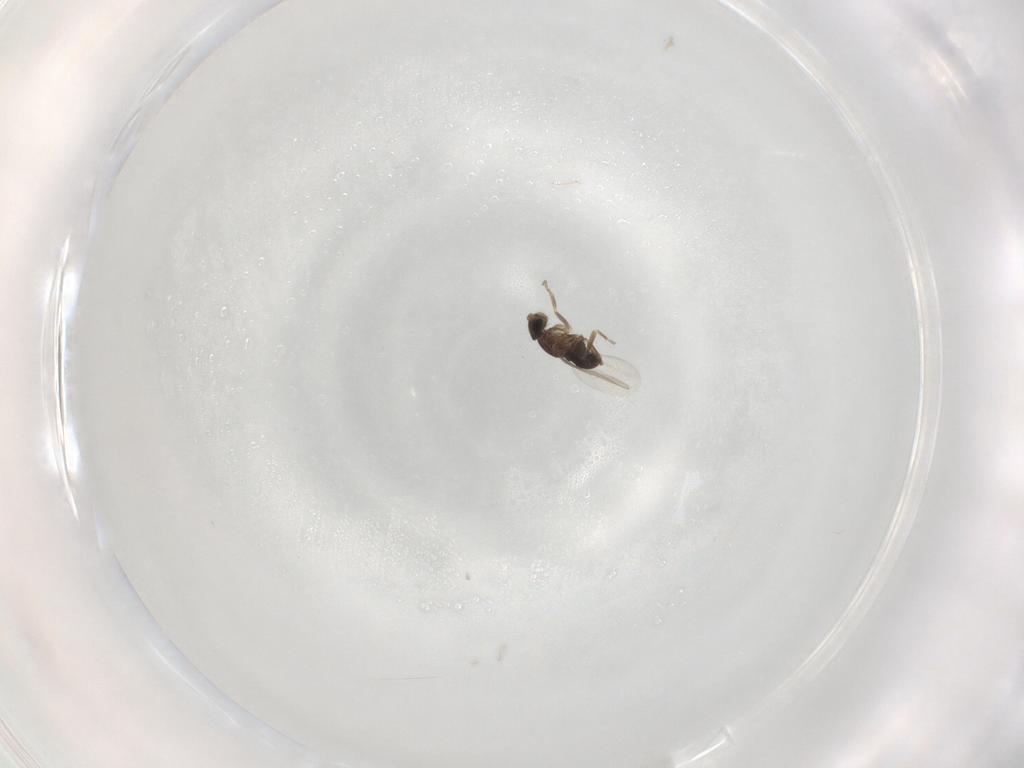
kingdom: Animalia
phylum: Arthropoda
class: Insecta
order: Diptera
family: Phoridae
